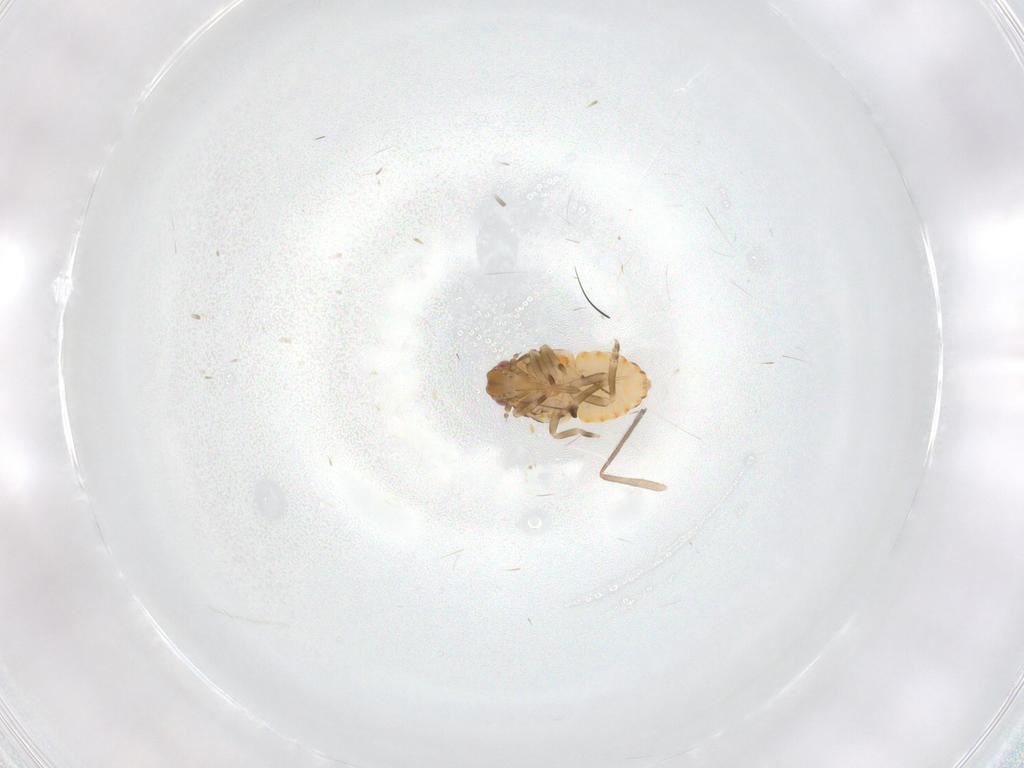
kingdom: Animalia
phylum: Arthropoda
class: Insecta
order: Hemiptera
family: Flatidae
